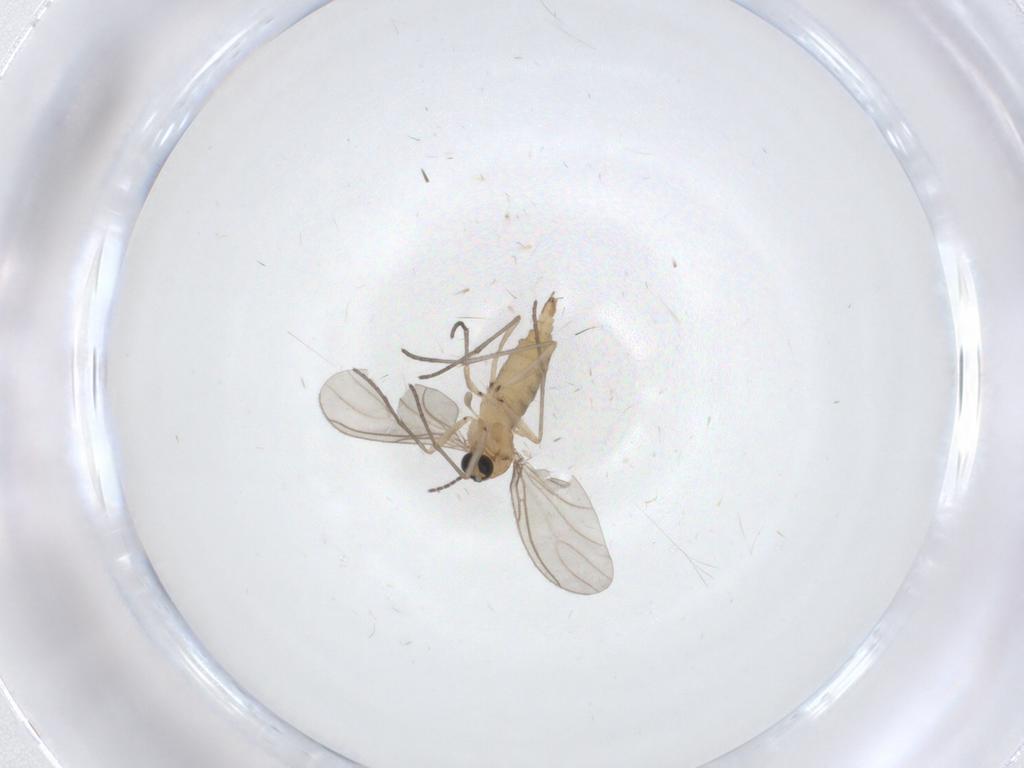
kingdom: Animalia
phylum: Arthropoda
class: Insecta
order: Diptera
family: Sciaridae
